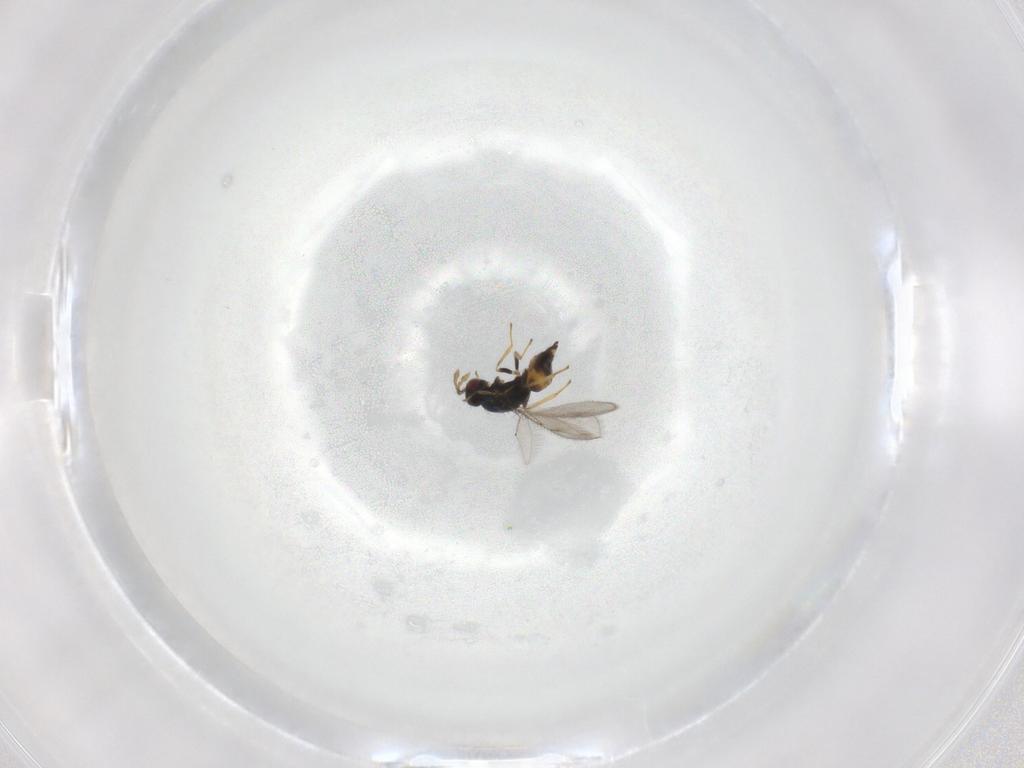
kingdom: Animalia
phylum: Arthropoda
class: Insecta
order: Hymenoptera
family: Eulophidae
